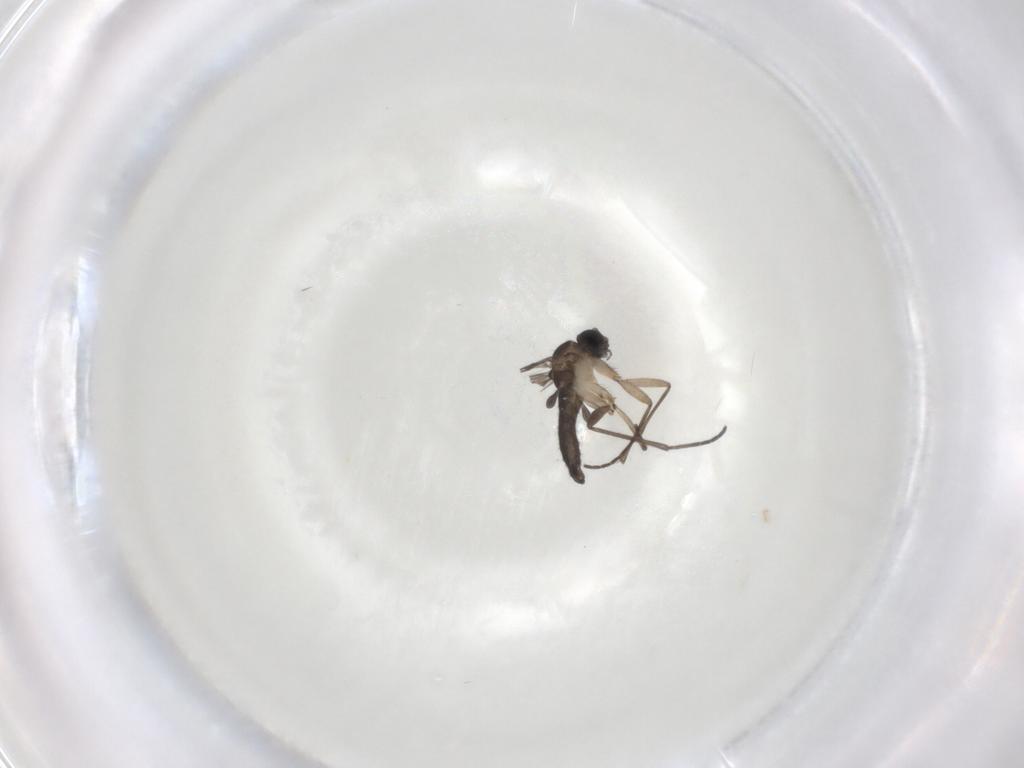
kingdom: Animalia
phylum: Arthropoda
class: Insecta
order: Diptera
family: Sciaridae
